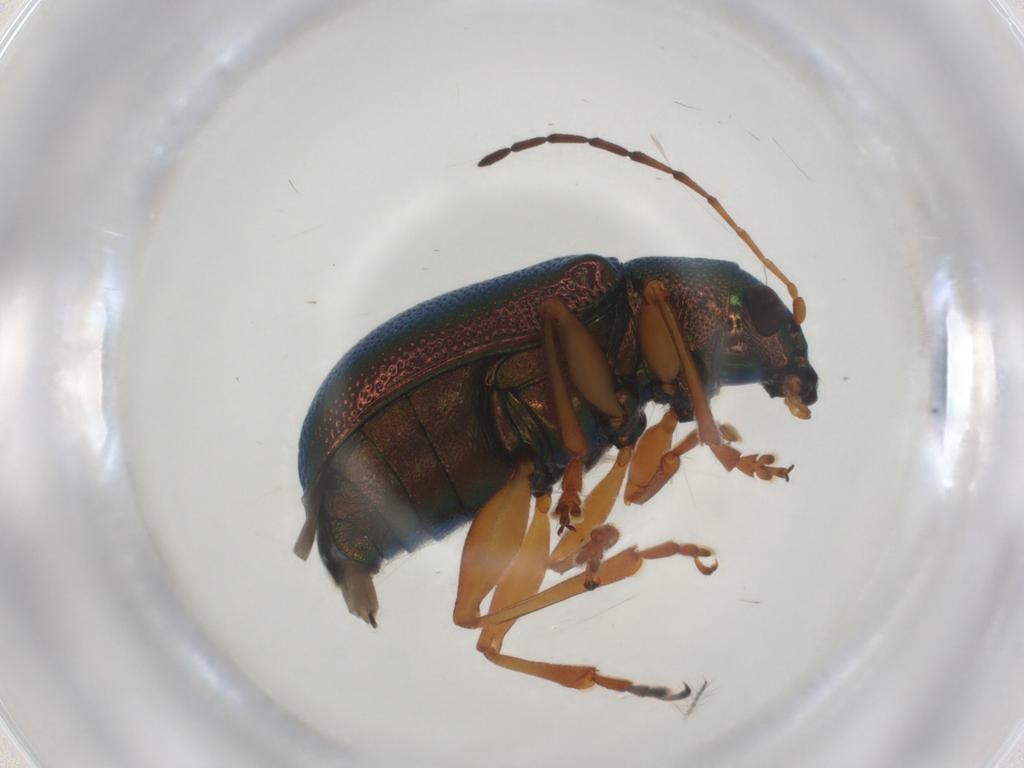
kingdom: Animalia
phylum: Arthropoda
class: Insecta
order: Coleoptera
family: Chrysomelidae
